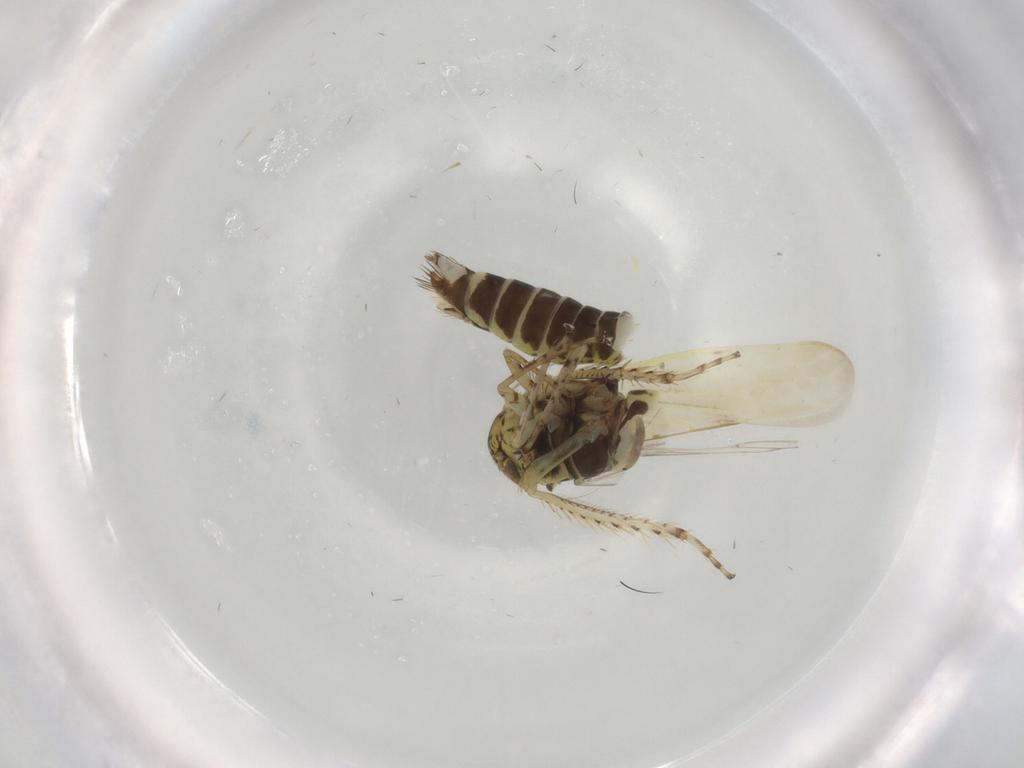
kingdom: Animalia
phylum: Arthropoda
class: Insecta
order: Hemiptera
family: Cicadellidae
